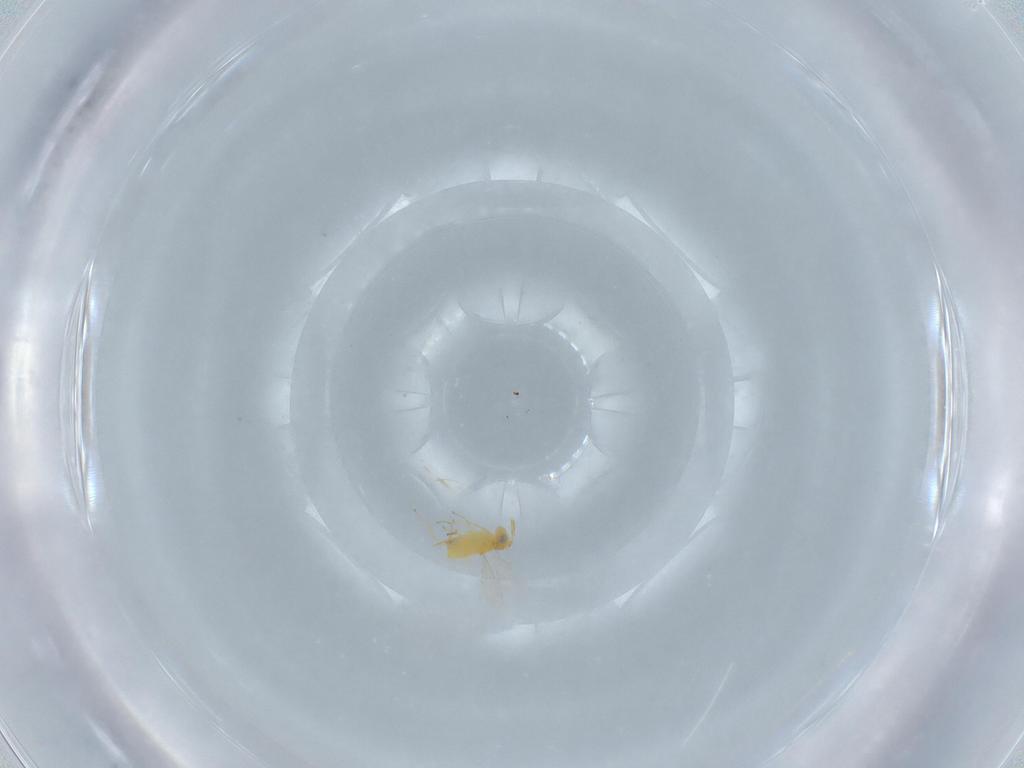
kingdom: Animalia
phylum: Arthropoda
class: Insecta
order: Hymenoptera
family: Aphelinidae
